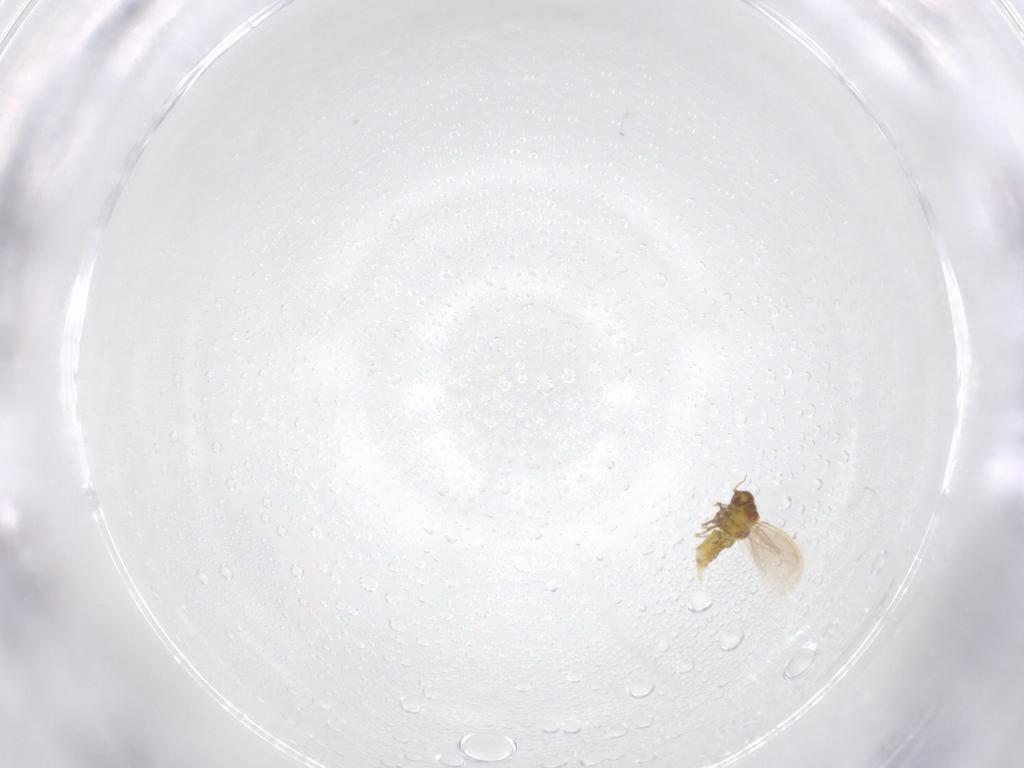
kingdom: Animalia
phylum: Arthropoda
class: Insecta
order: Hemiptera
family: Aleyrodidae
